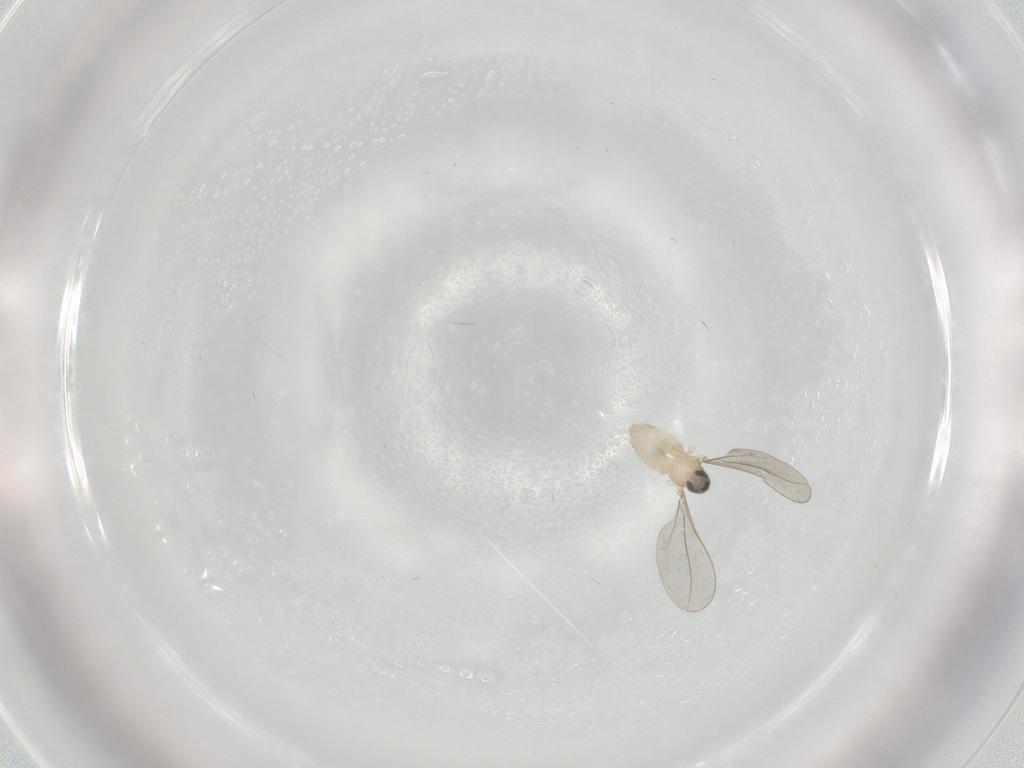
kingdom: Animalia
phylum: Arthropoda
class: Insecta
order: Diptera
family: Cecidomyiidae
